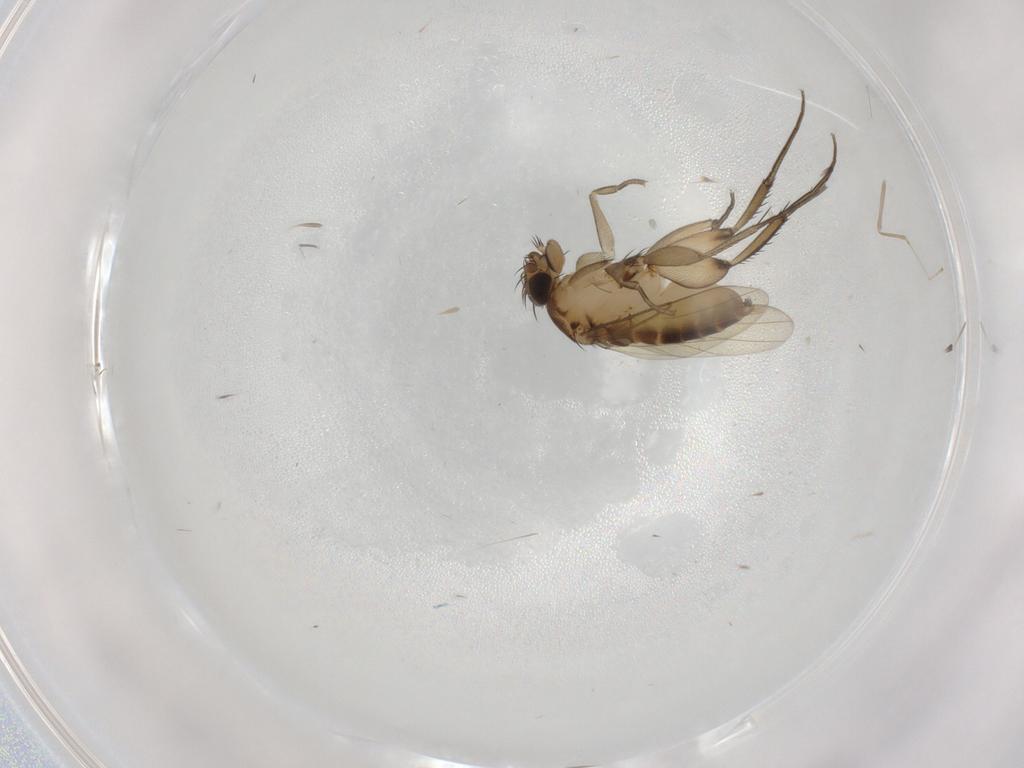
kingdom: Animalia
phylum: Arthropoda
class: Insecta
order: Diptera
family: Phoridae
